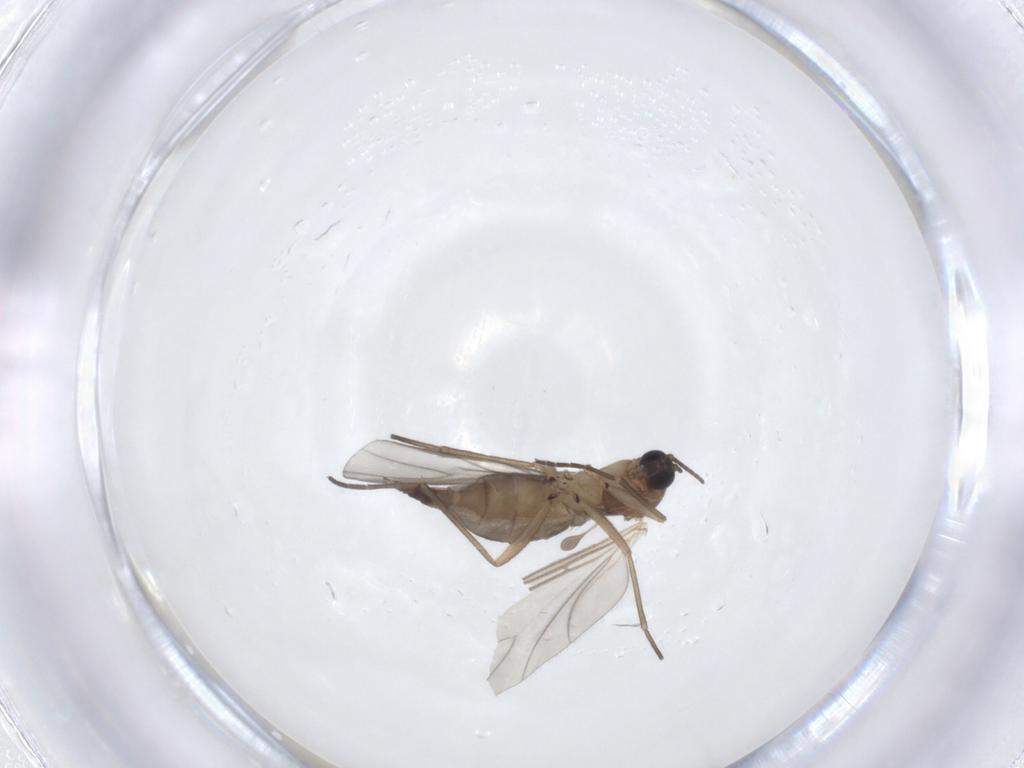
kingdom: Animalia
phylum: Arthropoda
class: Insecta
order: Diptera
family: Sciaridae
